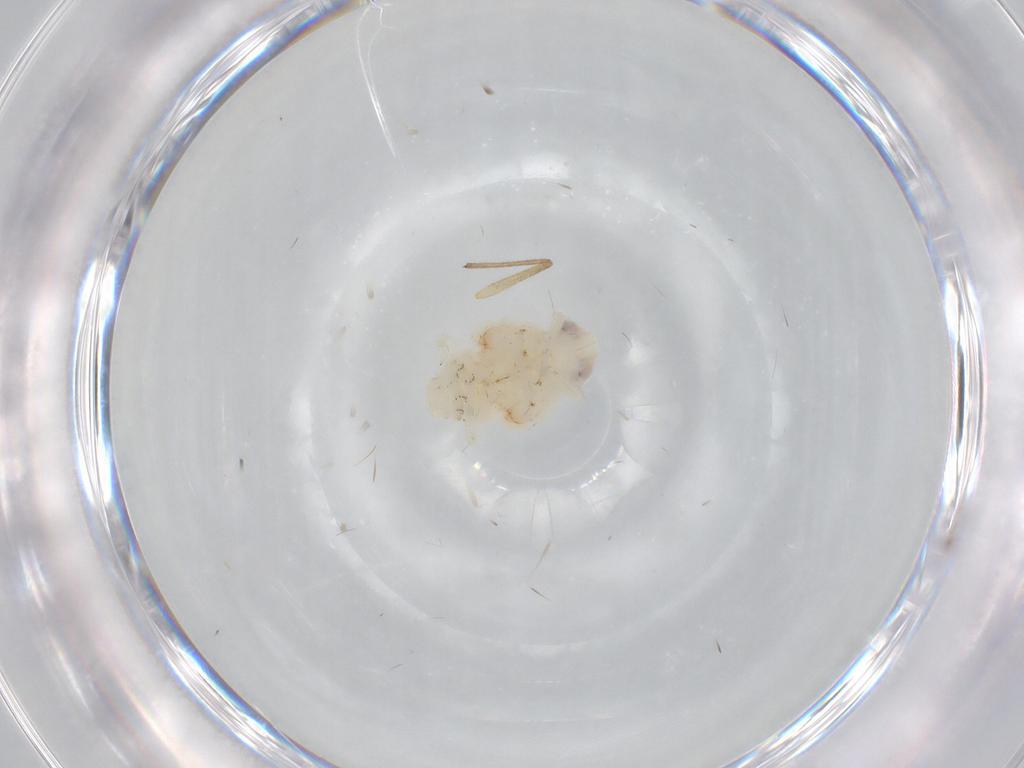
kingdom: Animalia
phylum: Arthropoda
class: Insecta
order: Hemiptera
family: Nogodinidae
